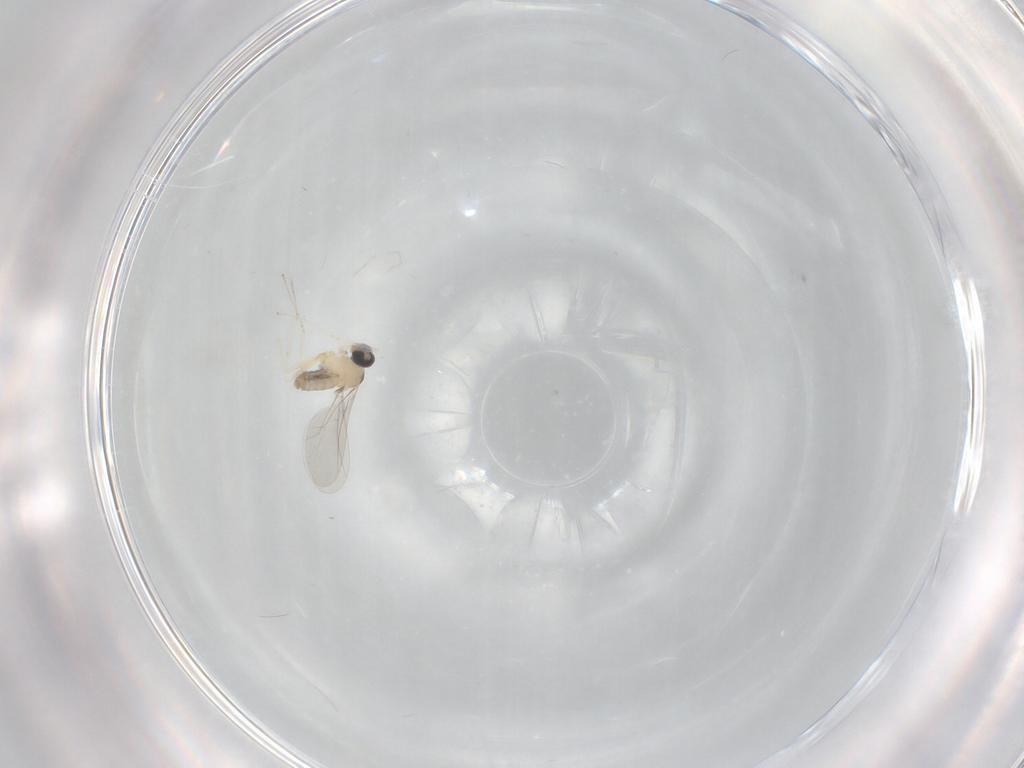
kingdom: Animalia
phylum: Arthropoda
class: Insecta
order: Diptera
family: Cecidomyiidae
